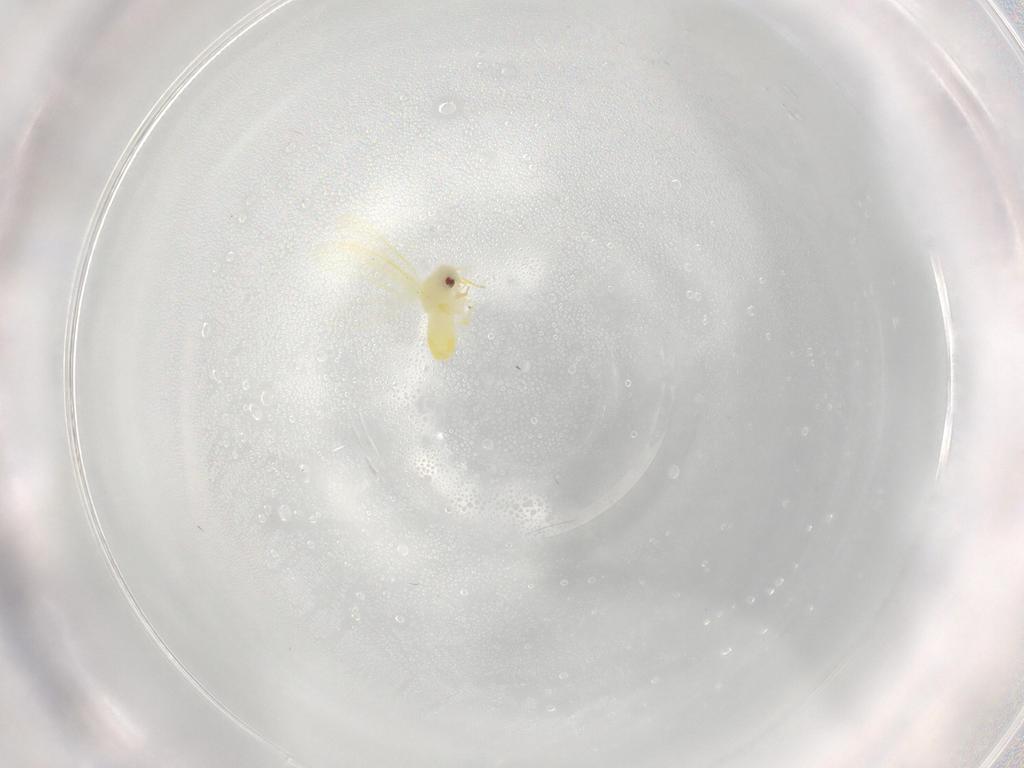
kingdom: Animalia
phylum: Arthropoda
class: Insecta
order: Hemiptera
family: Aleyrodidae
